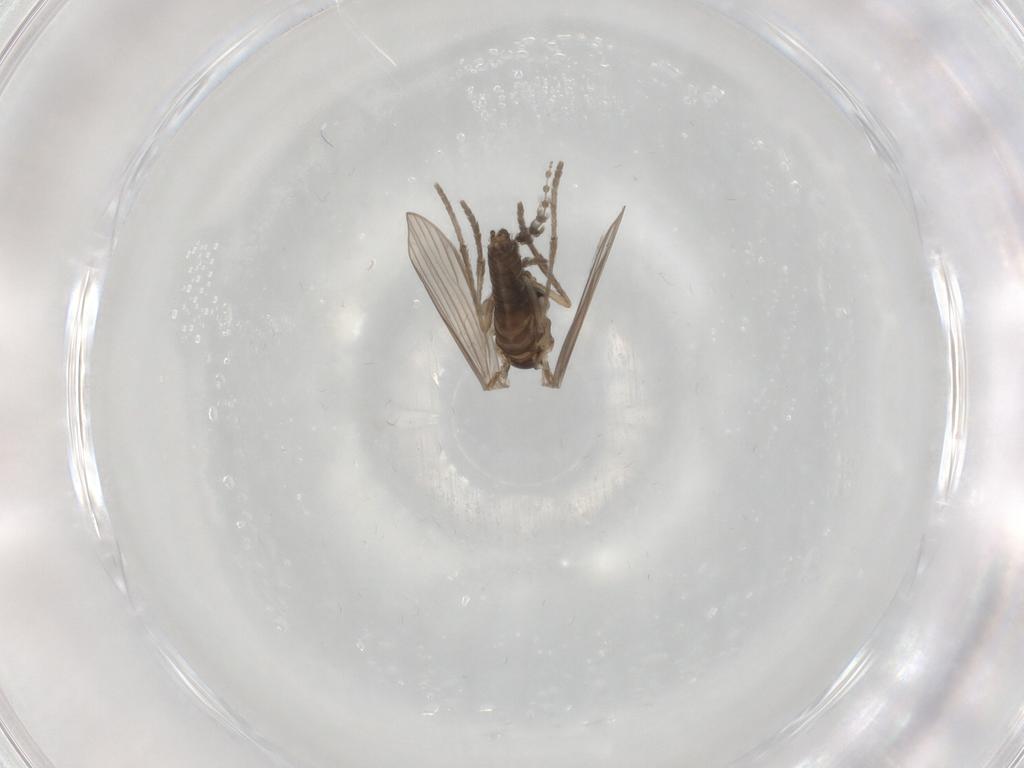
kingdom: Animalia
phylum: Arthropoda
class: Insecta
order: Diptera
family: Psychodidae
